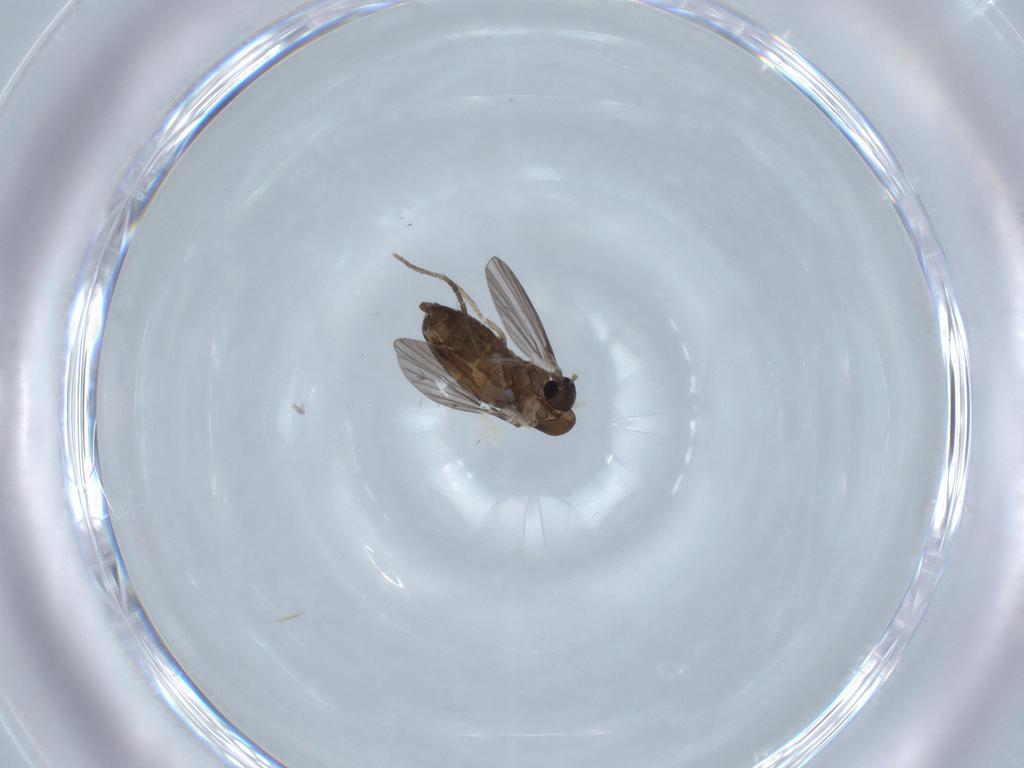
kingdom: Animalia
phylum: Arthropoda
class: Insecta
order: Diptera
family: Ceratopogonidae
